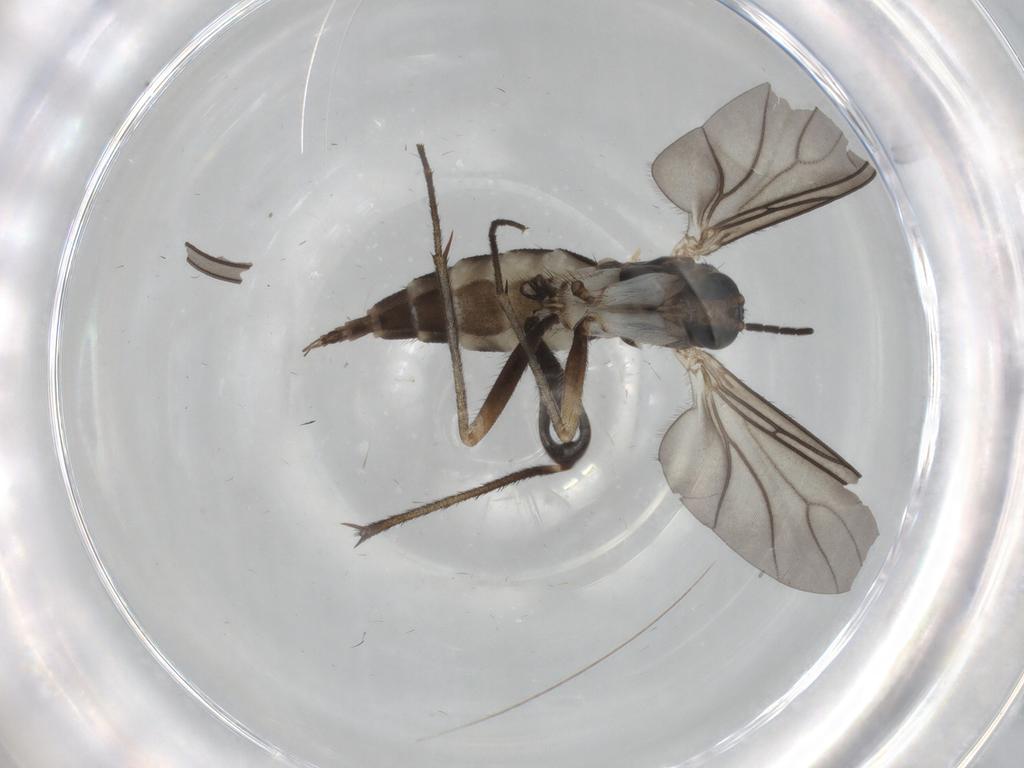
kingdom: Animalia
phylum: Arthropoda
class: Insecta
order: Diptera
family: Sciaridae
